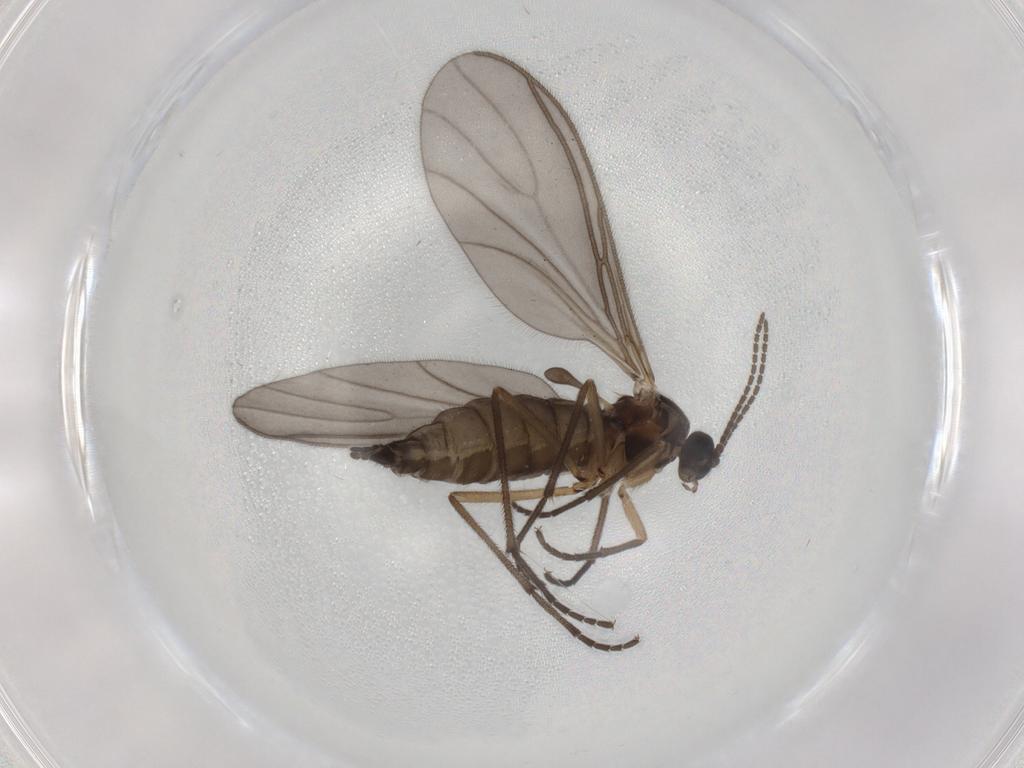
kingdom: Animalia
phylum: Arthropoda
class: Insecta
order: Diptera
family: Sciaridae
